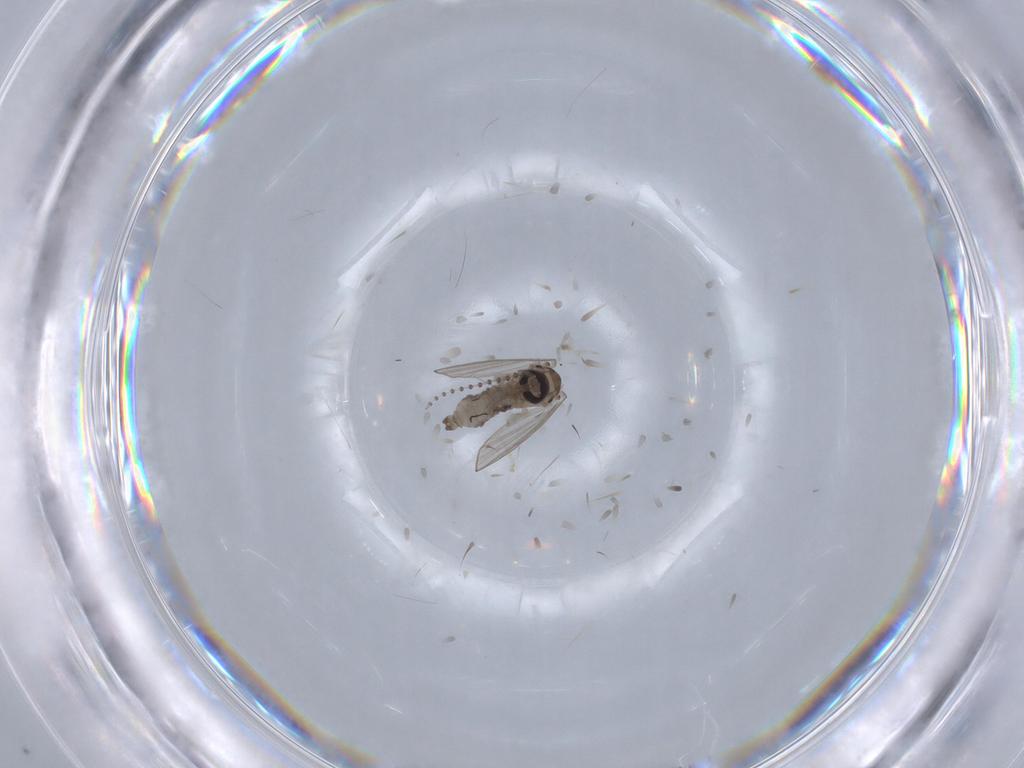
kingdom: Animalia
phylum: Arthropoda
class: Insecta
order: Diptera
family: Psychodidae
